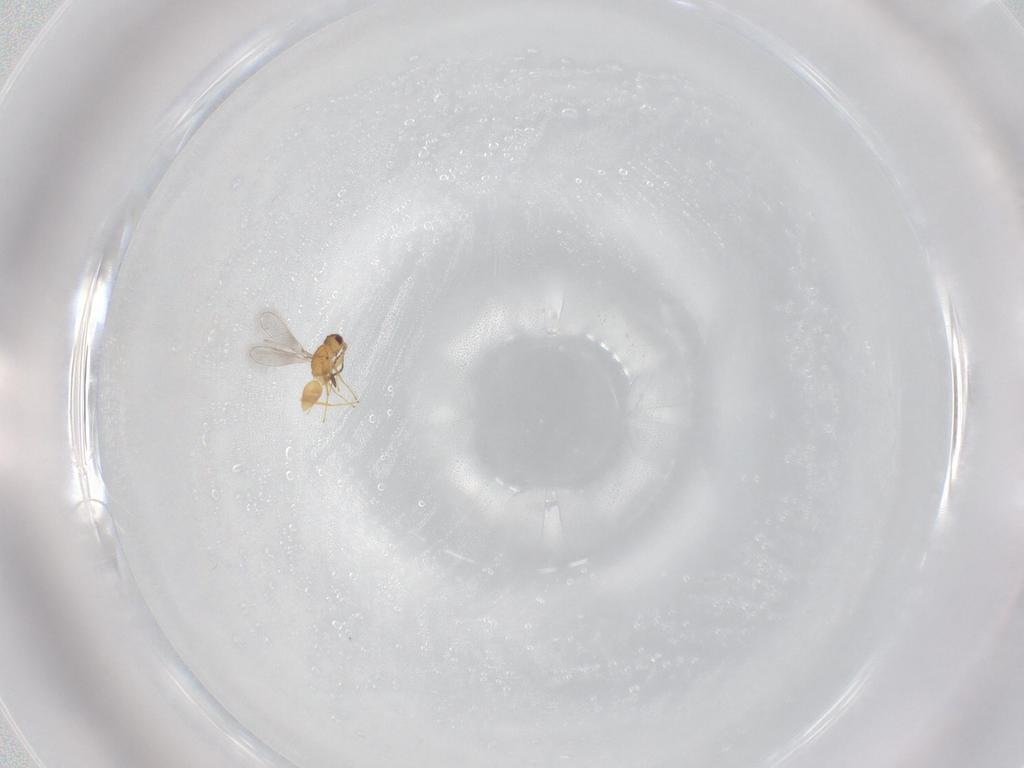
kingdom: Animalia
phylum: Arthropoda
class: Insecta
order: Hymenoptera
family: Mymaridae
